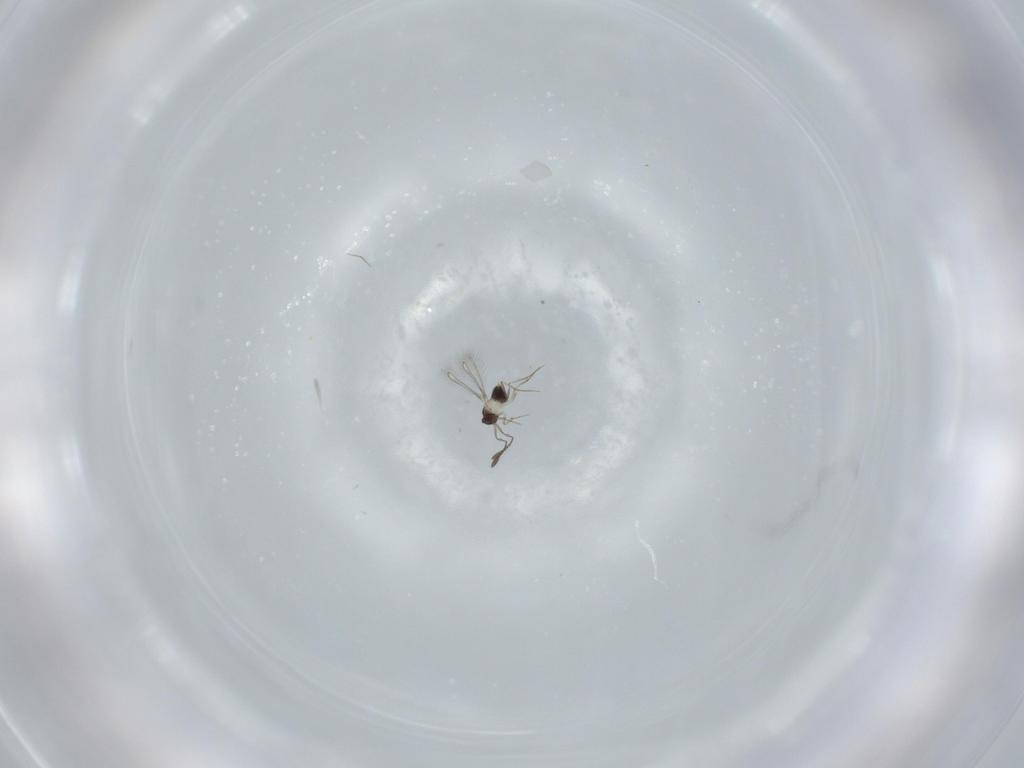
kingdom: Animalia
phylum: Arthropoda
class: Insecta
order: Hymenoptera
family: Mymaridae
